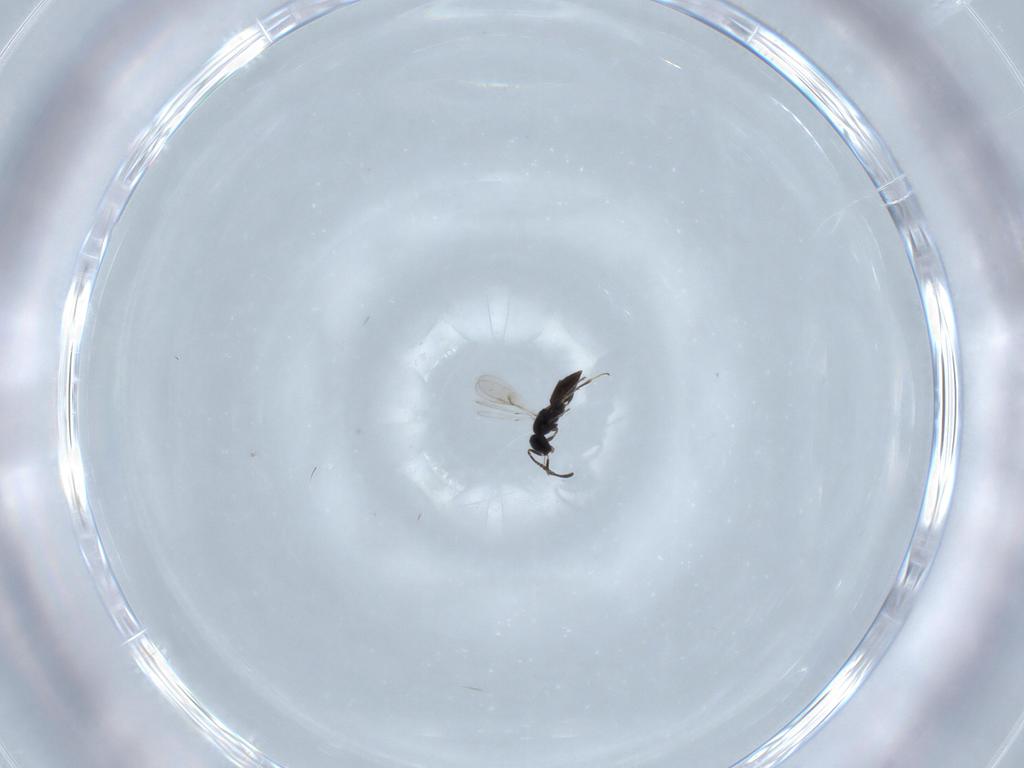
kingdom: Animalia
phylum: Arthropoda
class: Insecta
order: Hymenoptera
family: Scelionidae
